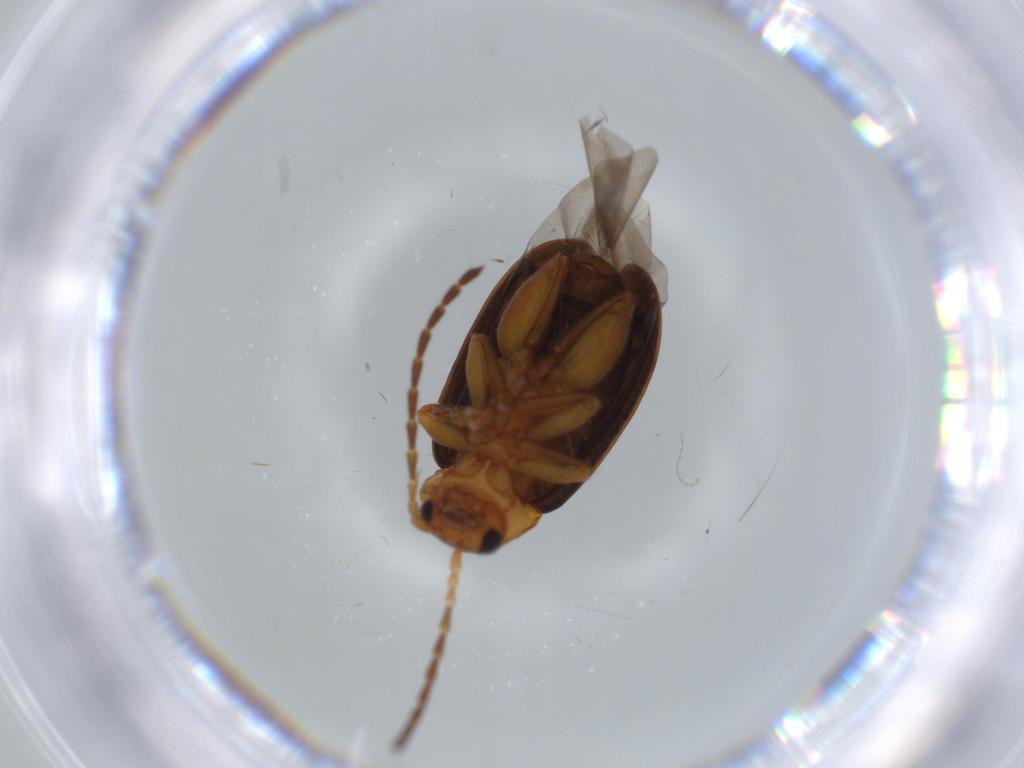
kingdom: Animalia
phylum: Arthropoda
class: Insecta
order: Coleoptera
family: Chrysomelidae
